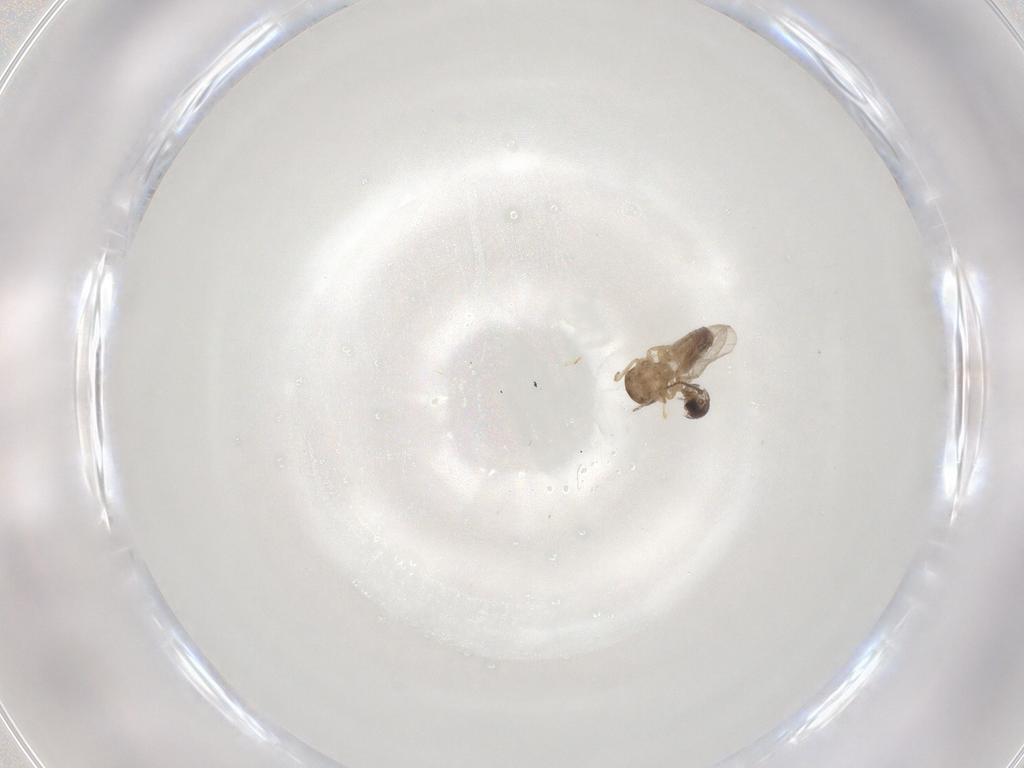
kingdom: Animalia
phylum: Arthropoda
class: Insecta
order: Diptera
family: Ceratopogonidae
